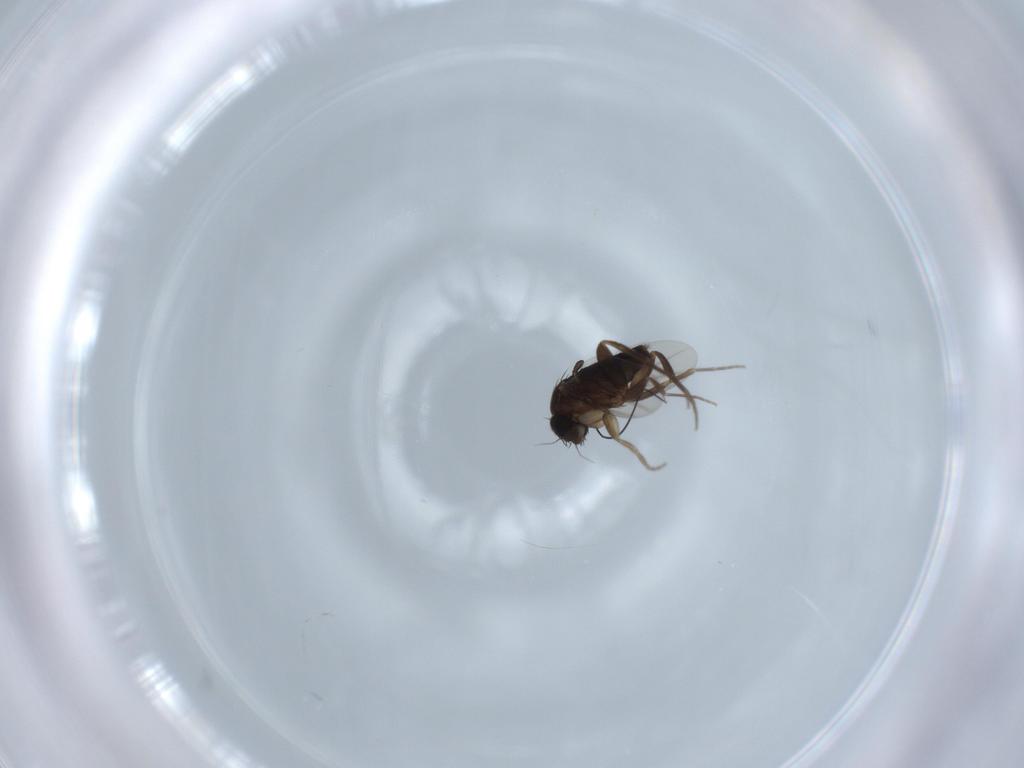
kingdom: Animalia
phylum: Arthropoda
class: Insecta
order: Diptera
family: Phoridae
